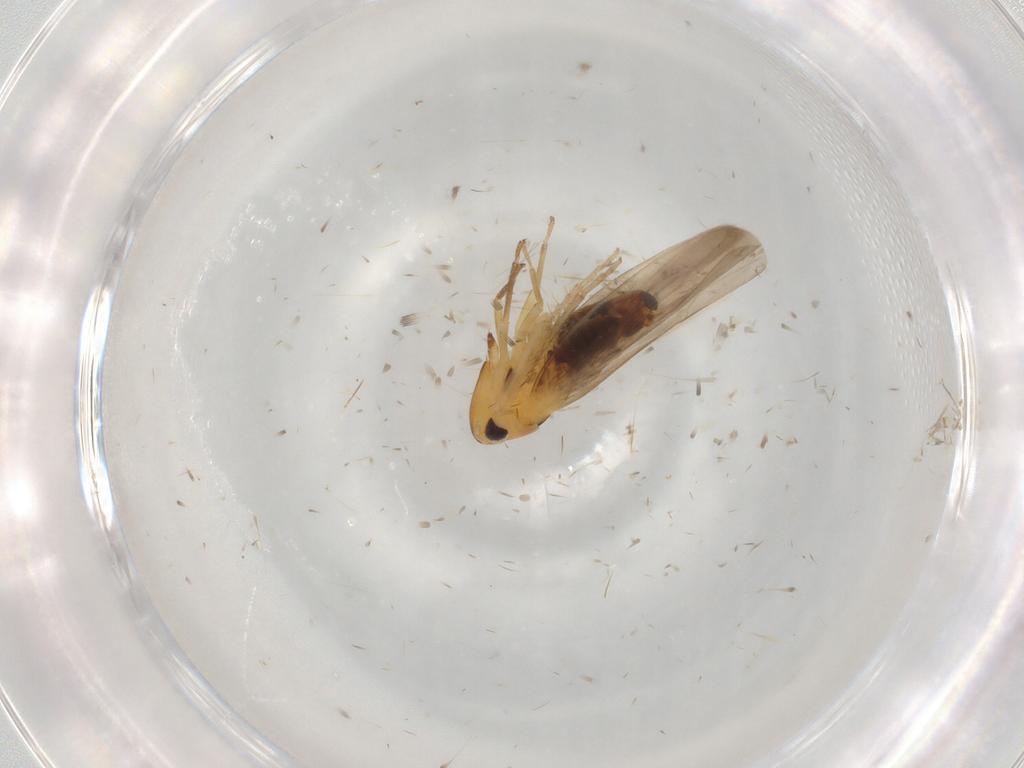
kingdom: Animalia
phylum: Arthropoda
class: Insecta
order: Hemiptera
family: Cicadellidae
